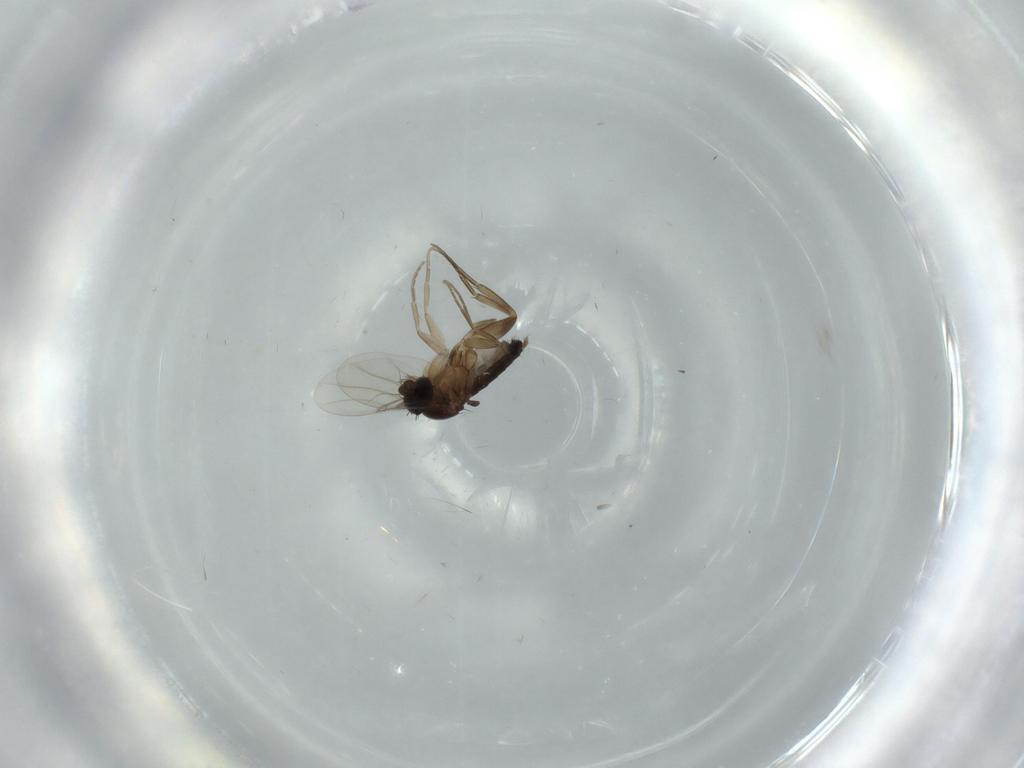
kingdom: Animalia
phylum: Arthropoda
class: Insecta
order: Diptera
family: Phoridae
